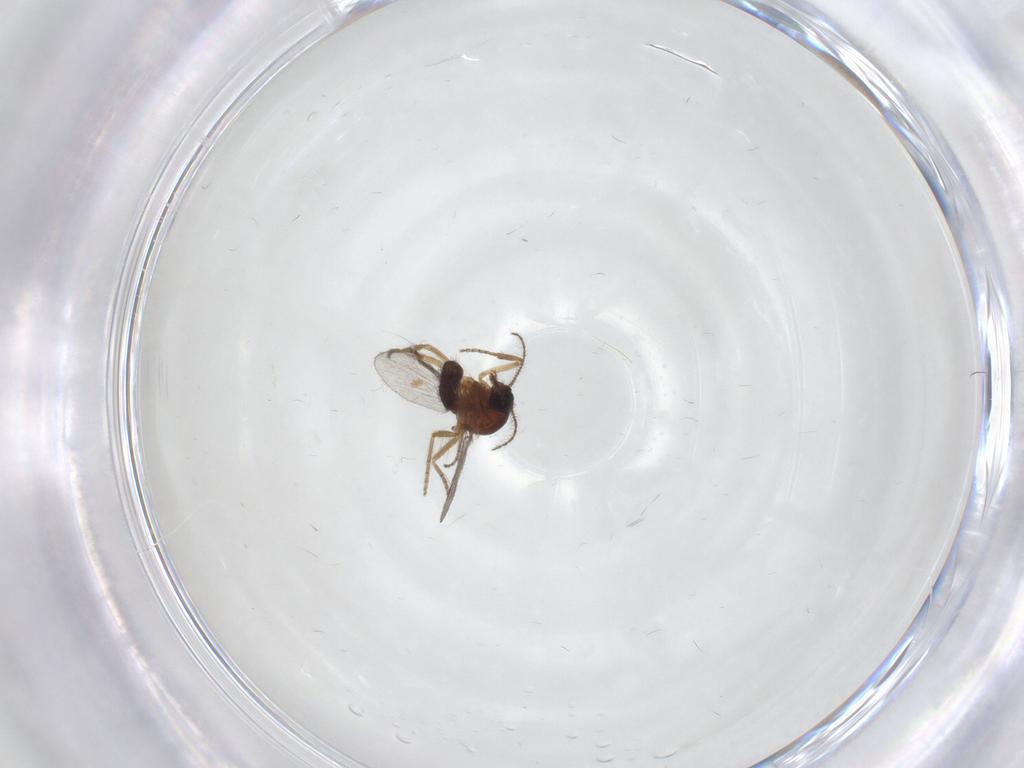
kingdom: Animalia
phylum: Arthropoda
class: Insecta
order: Diptera
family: Ceratopogonidae
